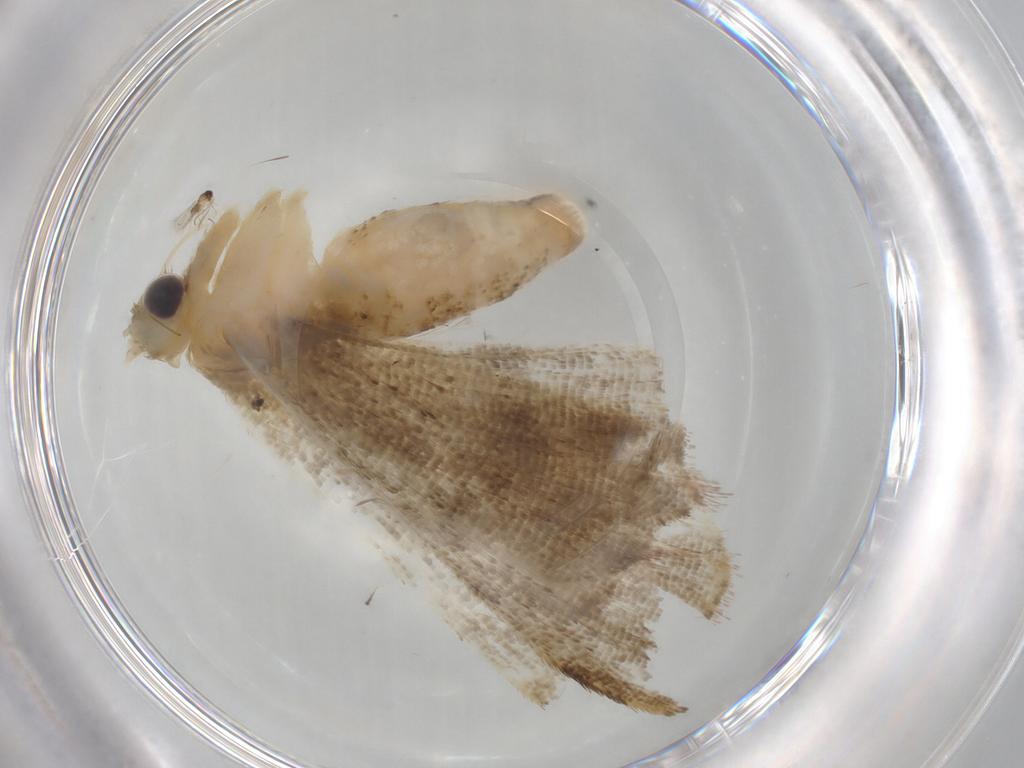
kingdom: Animalia
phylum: Arthropoda
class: Insecta
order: Lepidoptera
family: Erebidae
